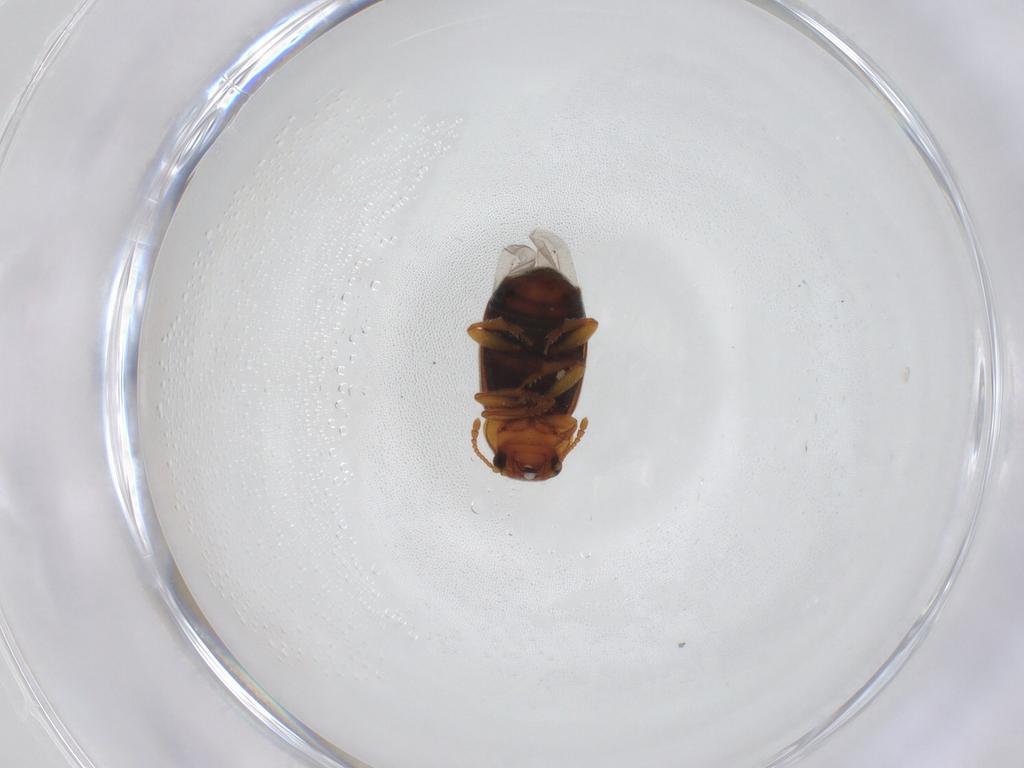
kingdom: Animalia
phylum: Arthropoda
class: Insecta
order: Coleoptera
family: Kateretidae
